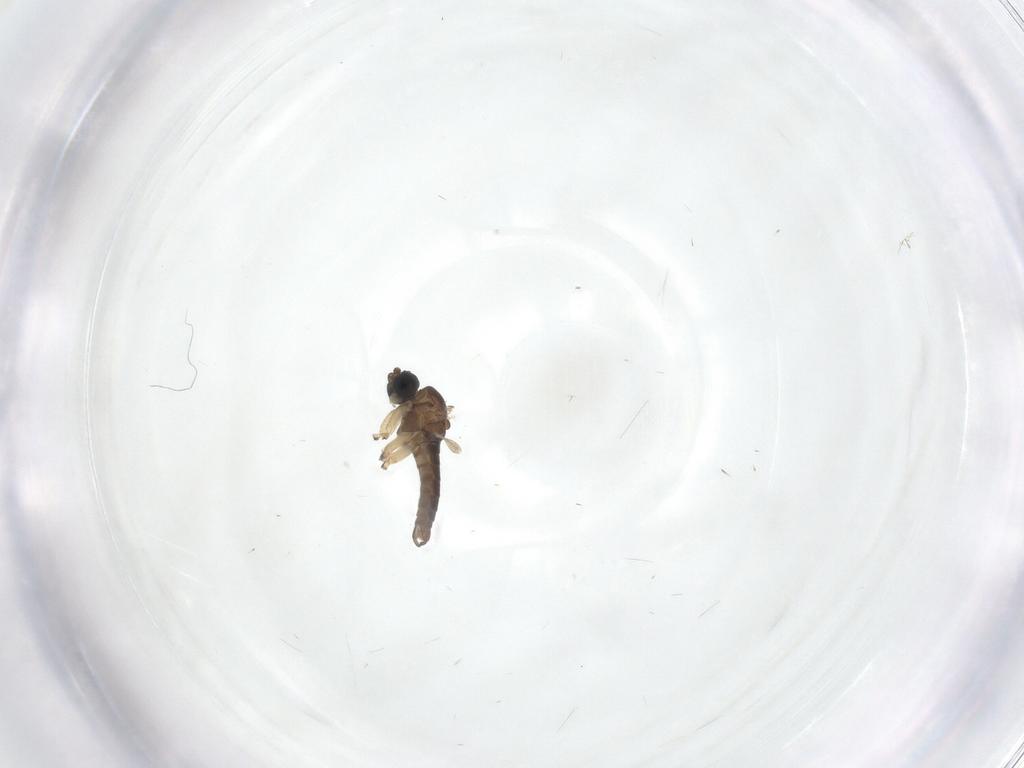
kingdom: Animalia
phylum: Arthropoda
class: Insecta
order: Diptera
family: Sciaridae
